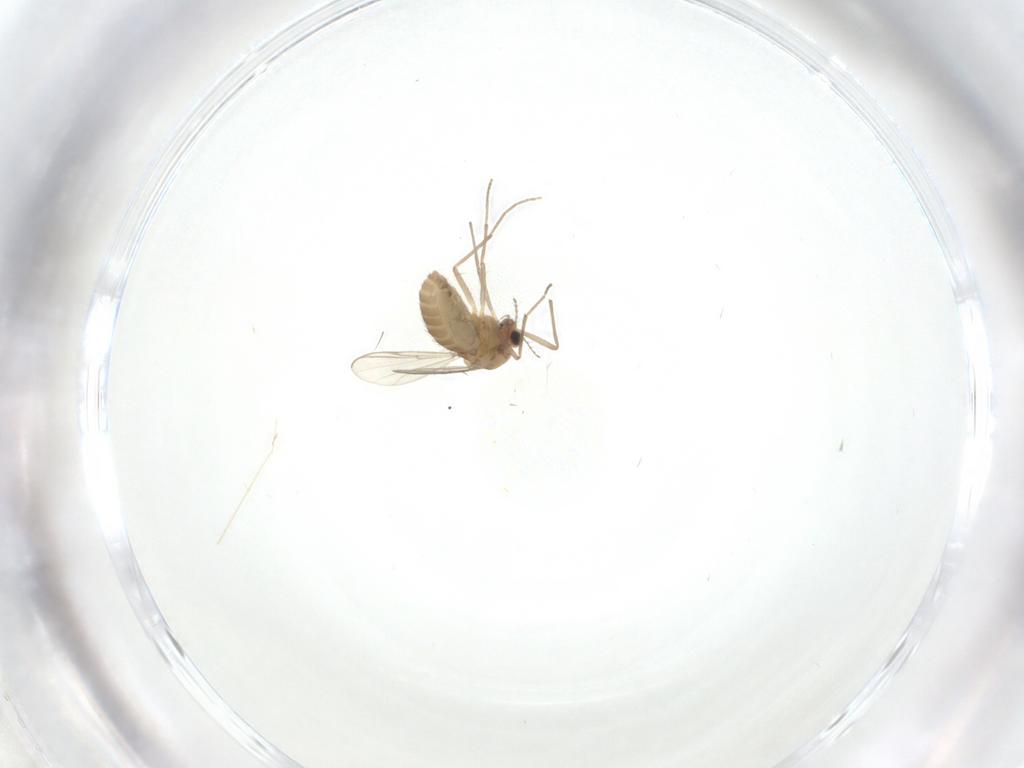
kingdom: Animalia
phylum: Arthropoda
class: Insecta
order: Diptera
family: Chironomidae
